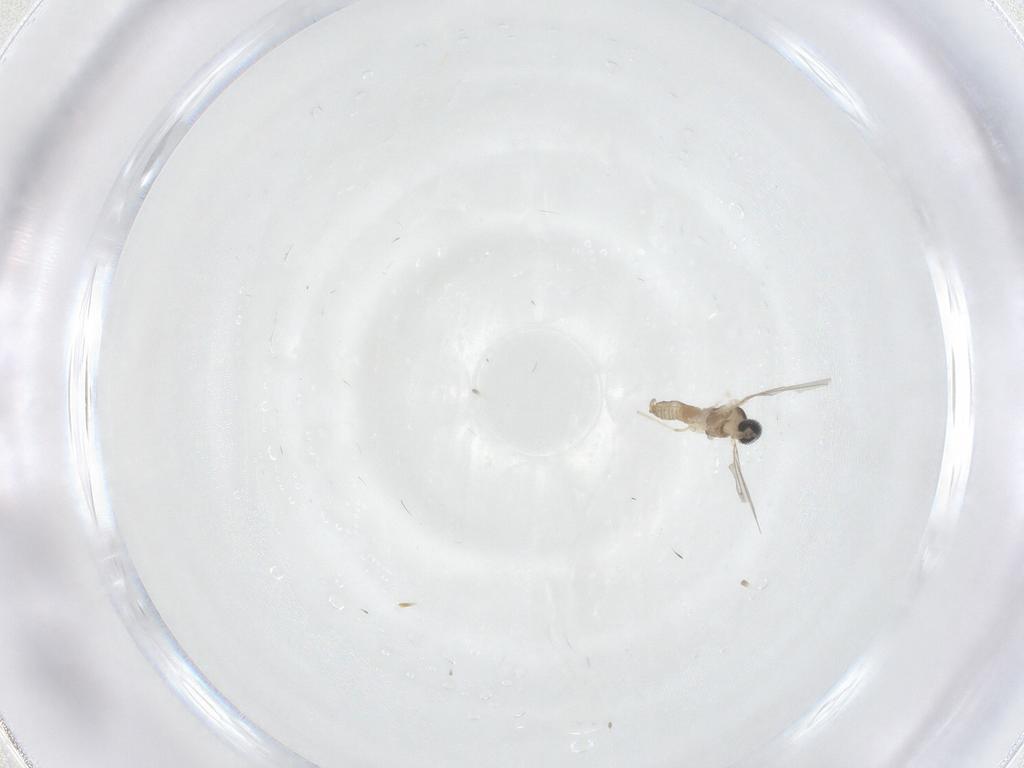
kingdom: Animalia
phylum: Arthropoda
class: Insecta
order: Diptera
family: Cecidomyiidae
